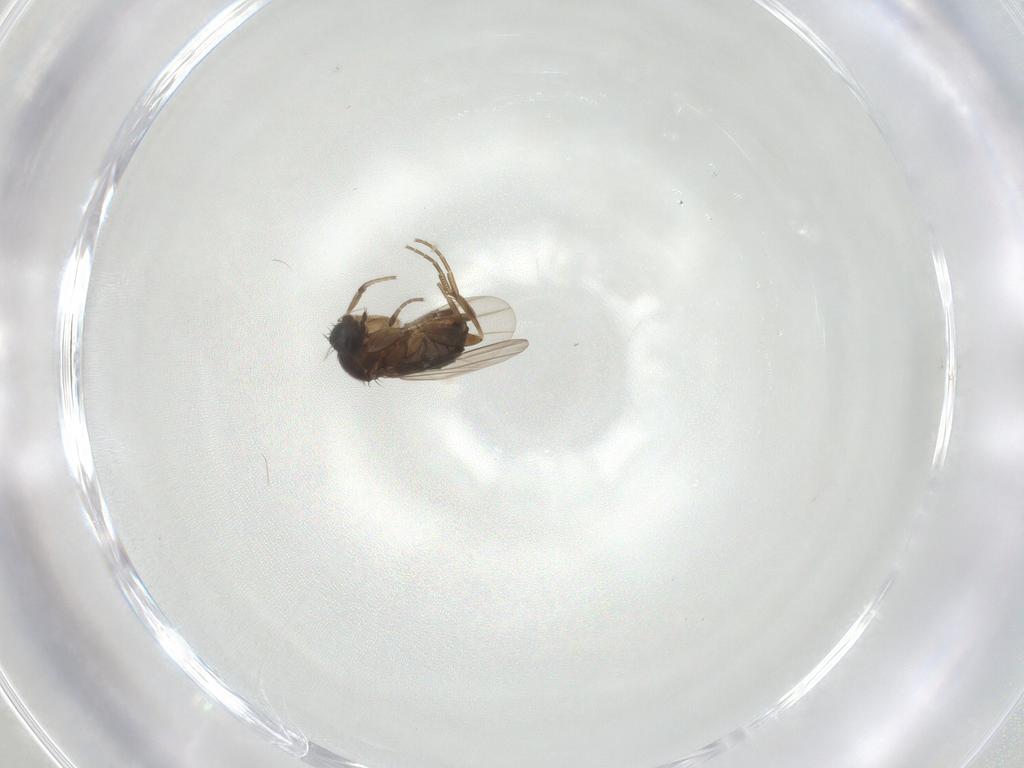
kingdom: Animalia
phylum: Arthropoda
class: Insecta
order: Diptera
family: Phoridae
